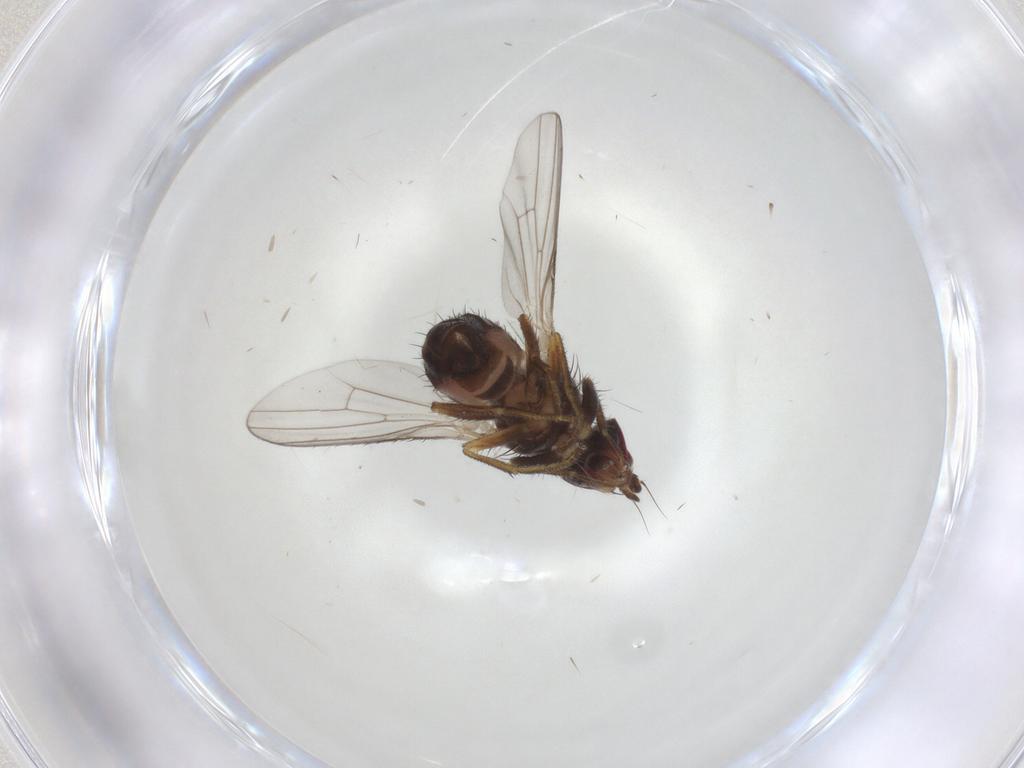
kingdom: Animalia
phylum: Arthropoda
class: Insecta
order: Diptera
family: Heleomyzidae
